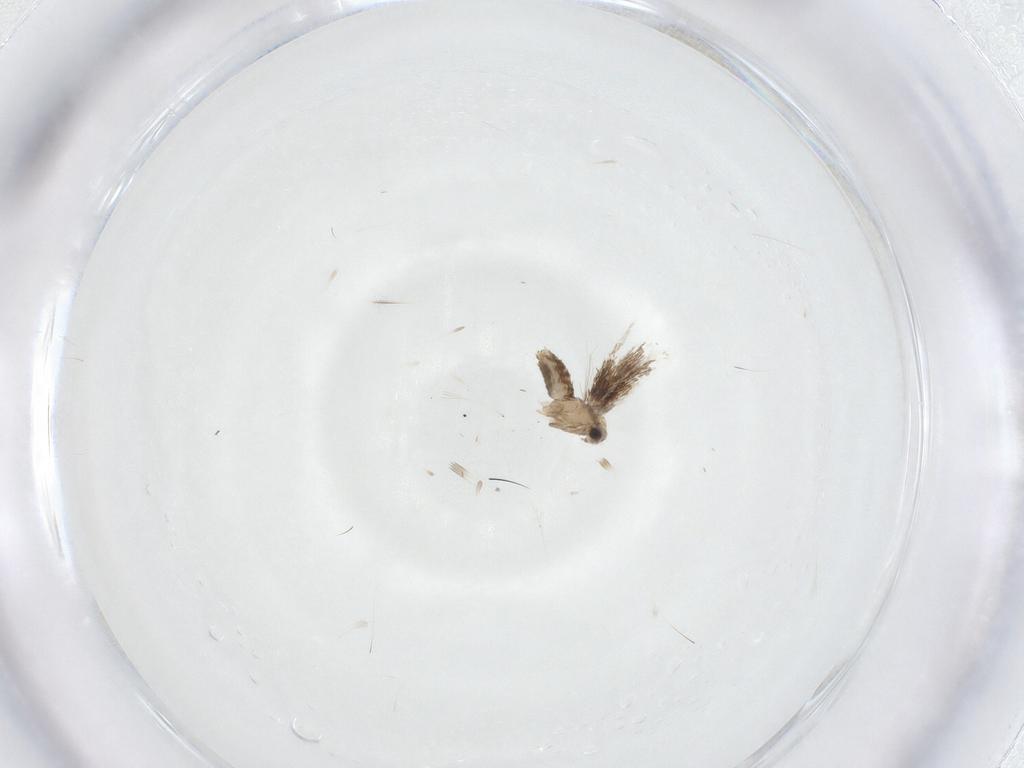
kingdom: Animalia
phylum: Arthropoda
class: Insecta
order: Lepidoptera
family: Nepticulidae
